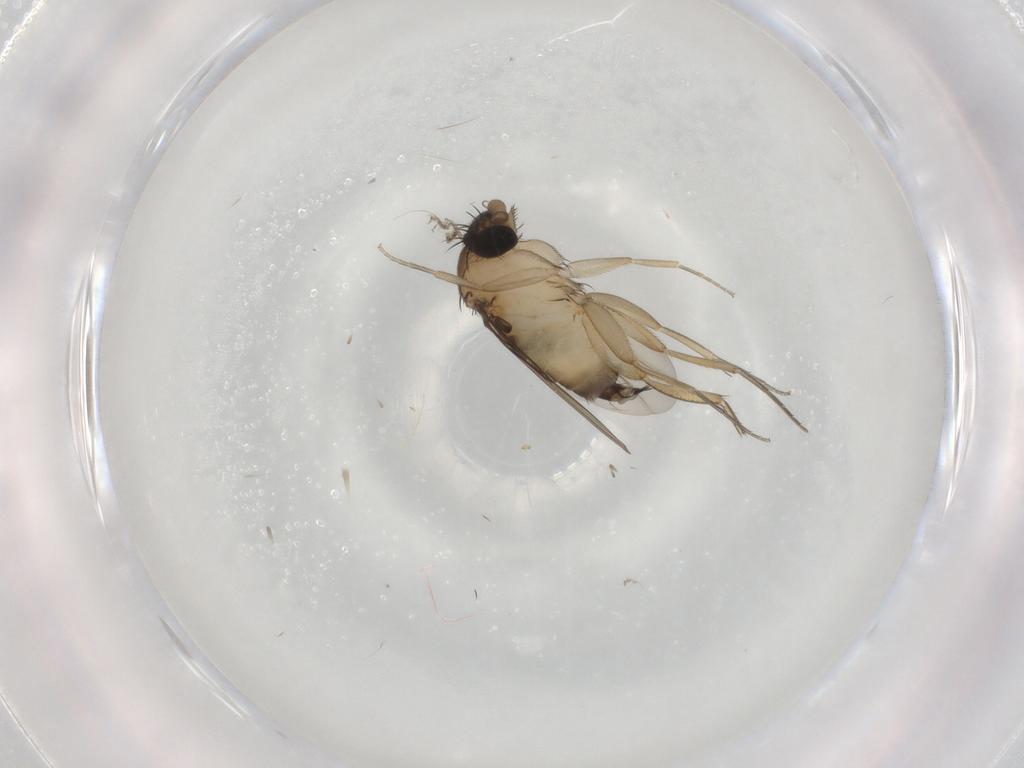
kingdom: Animalia
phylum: Arthropoda
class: Insecta
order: Diptera
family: Phoridae
